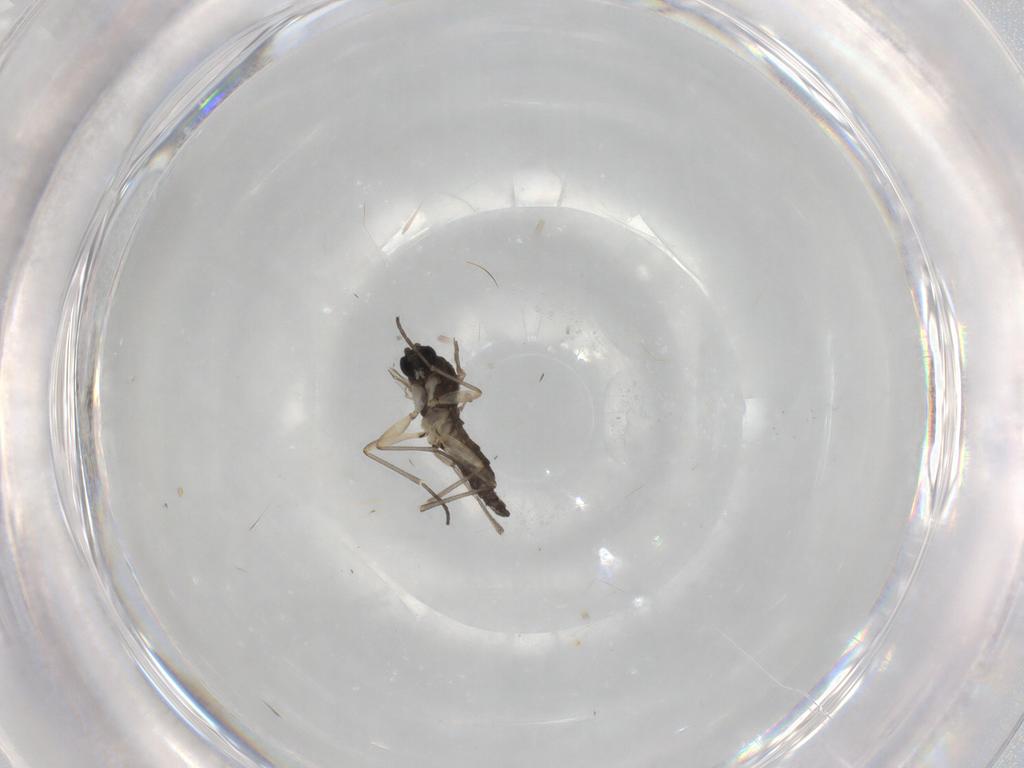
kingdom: Animalia
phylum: Arthropoda
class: Insecta
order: Diptera
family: Sciaridae
